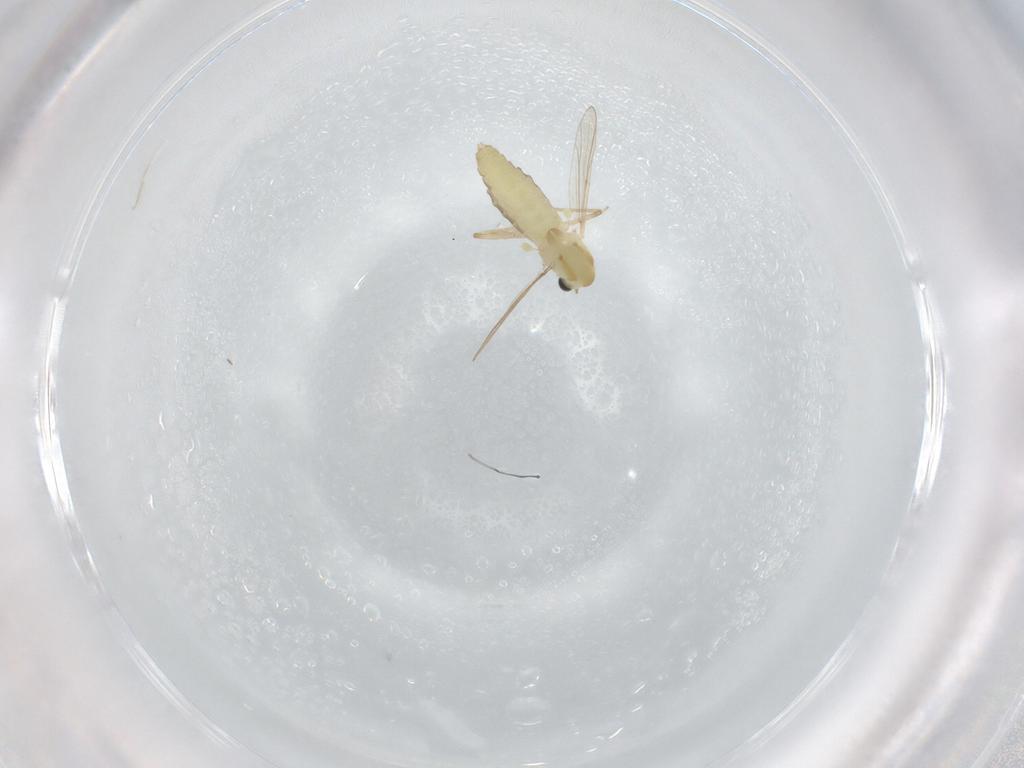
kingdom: Animalia
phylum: Arthropoda
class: Insecta
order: Diptera
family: Chironomidae
